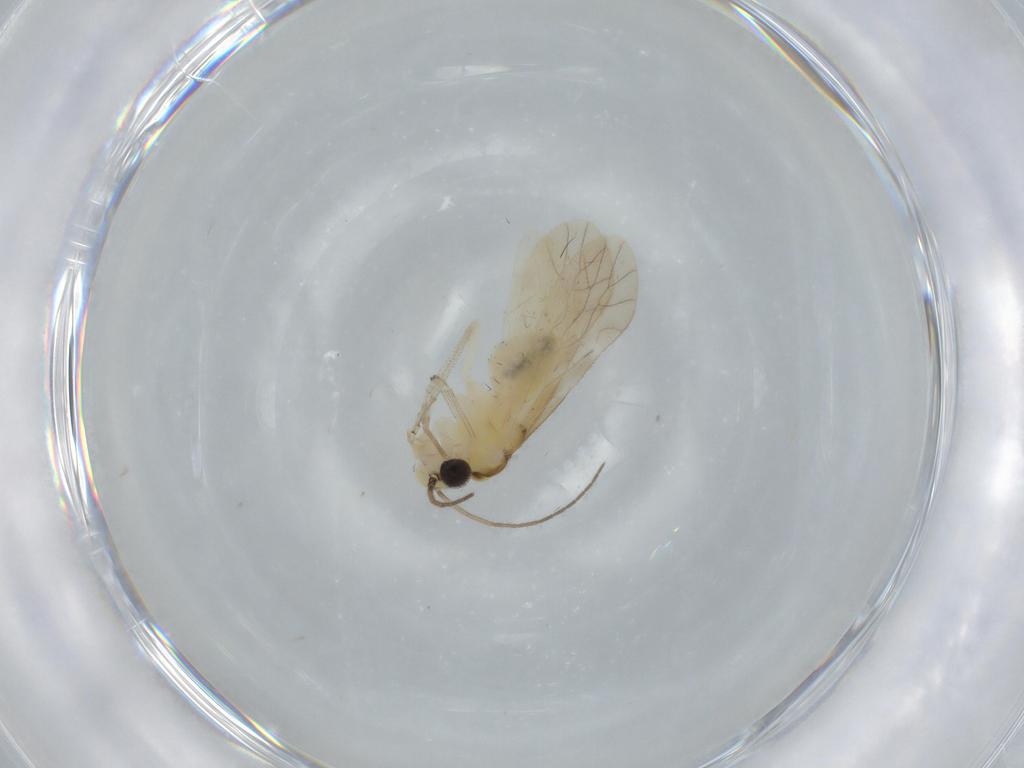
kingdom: Animalia
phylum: Arthropoda
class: Insecta
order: Psocodea
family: Caeciliusidae
